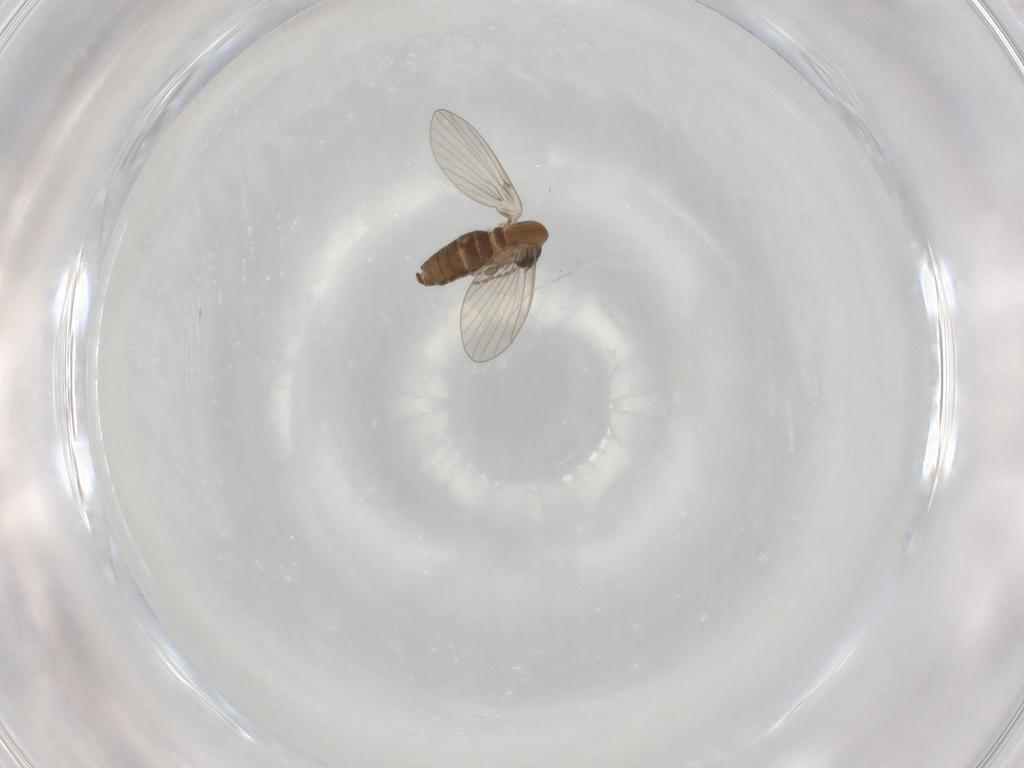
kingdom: Animalia
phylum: Arthropoda
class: Insecta
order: Diptera
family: Psychodidae
